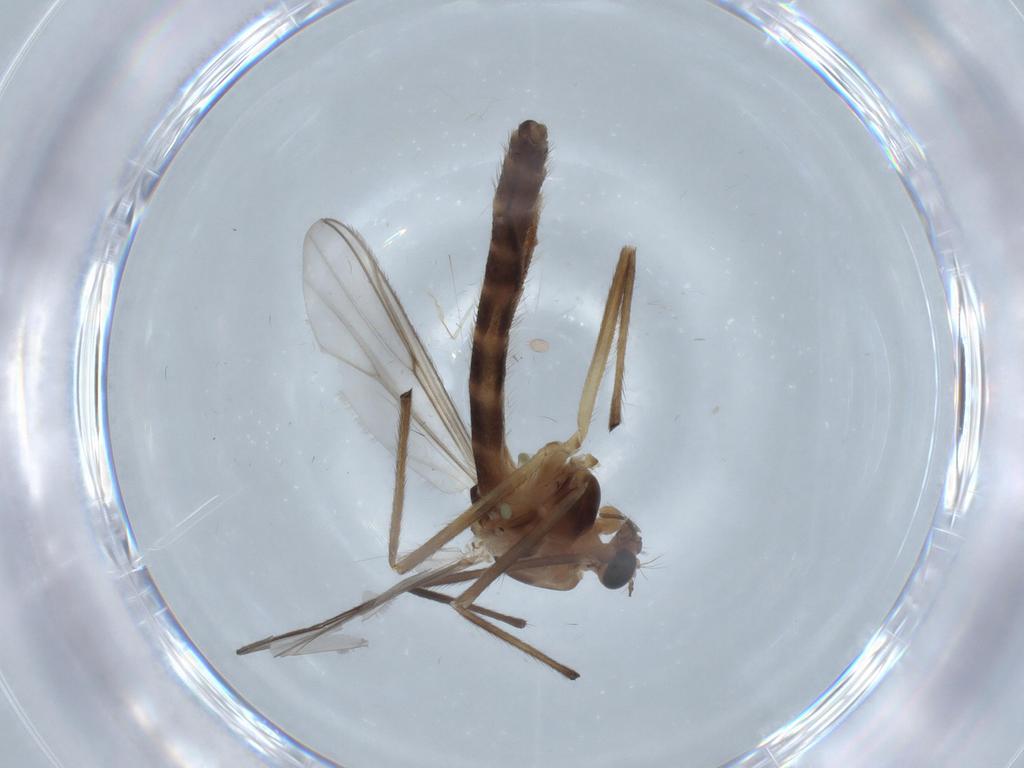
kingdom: Animalia
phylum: Arthropoda
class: Insecta
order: Diptera
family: Chironomidae
